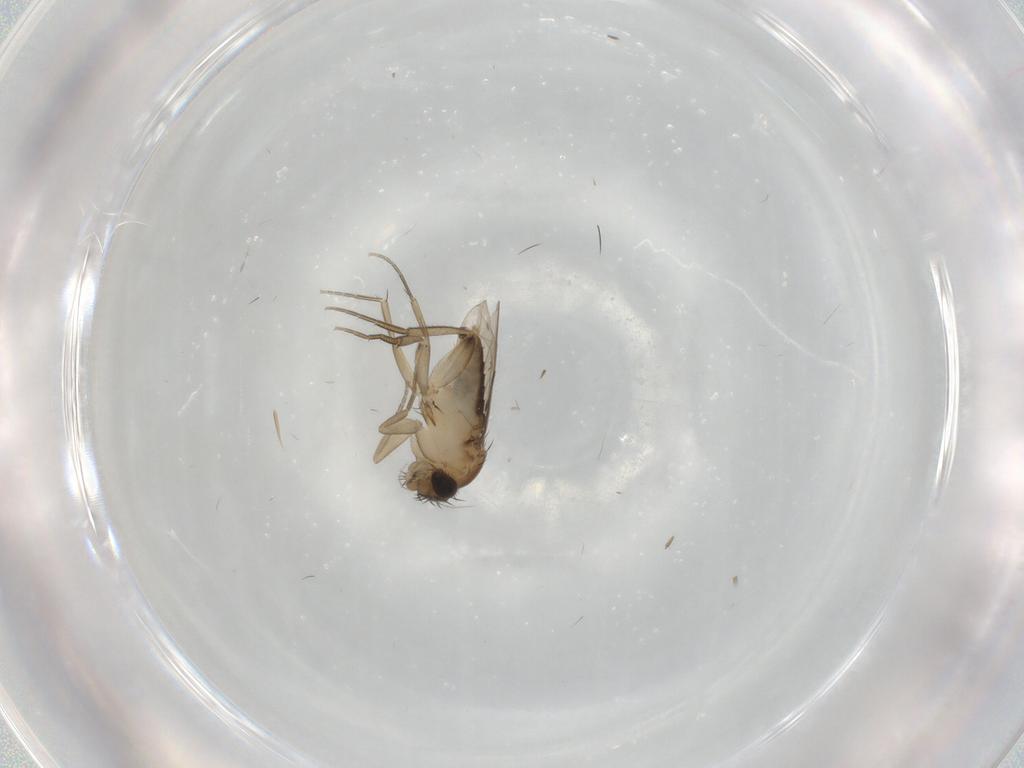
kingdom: Animalia
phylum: Arthropoda
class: Insecta
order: Diptera
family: Phoridae
